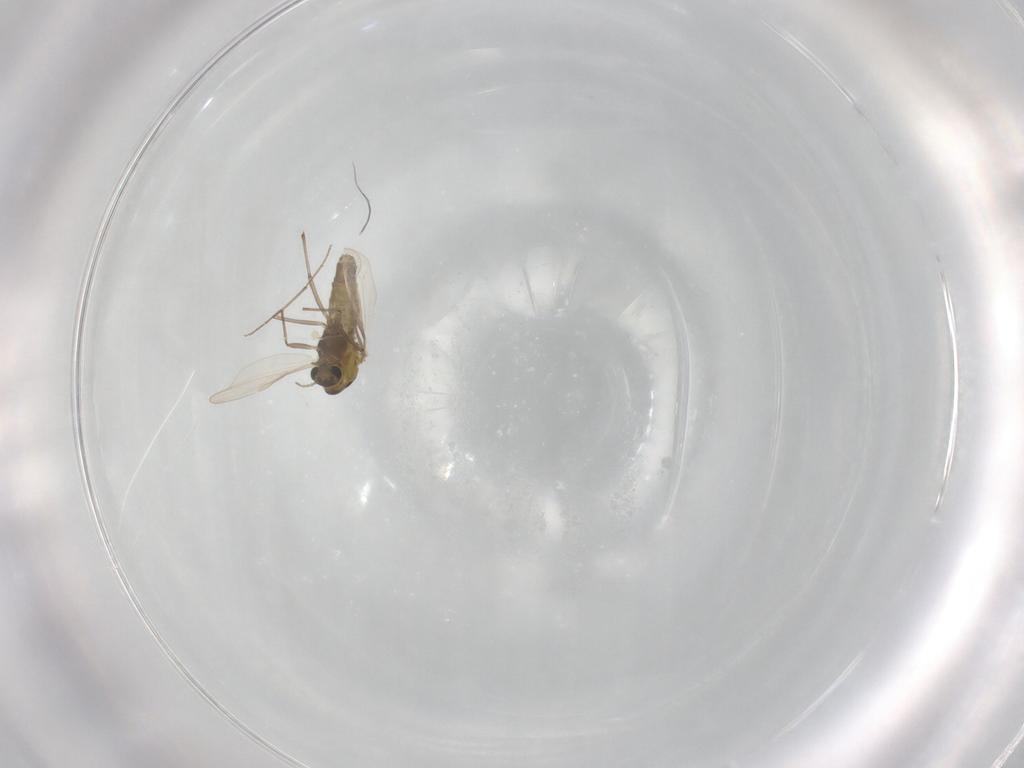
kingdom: Animalia
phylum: Arthropoda
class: Insecta
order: Diptera
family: Chironomidae
